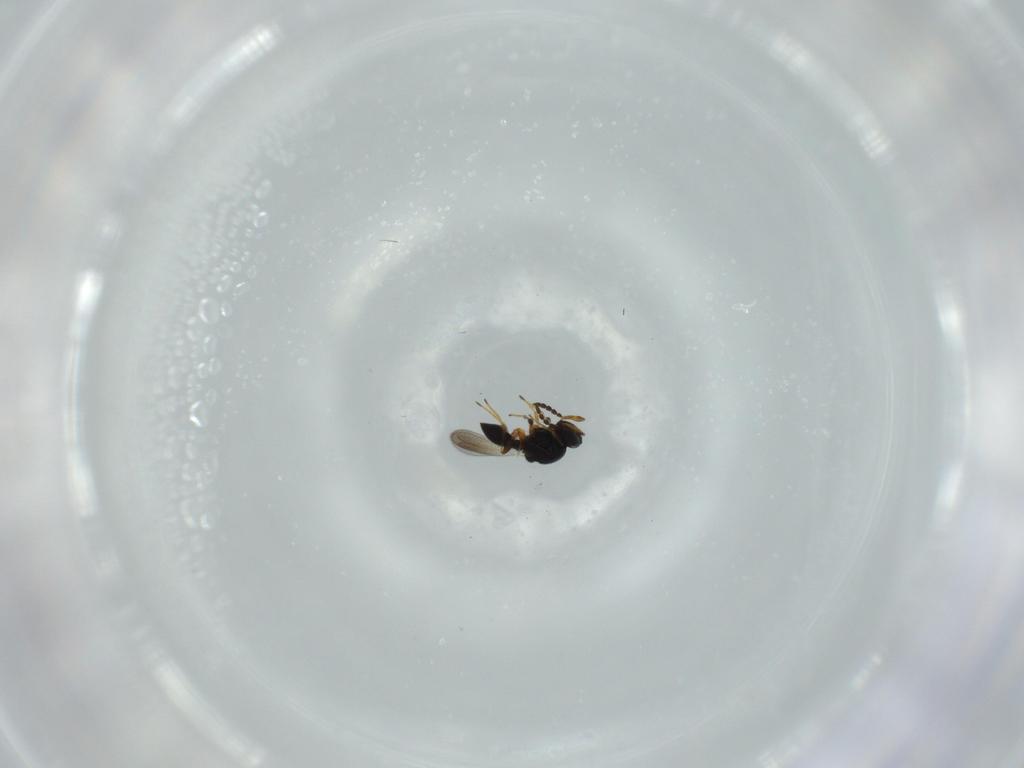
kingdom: Animalia
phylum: Arthropoda
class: Insecta
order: Hymenoptera
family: Platygastridae
